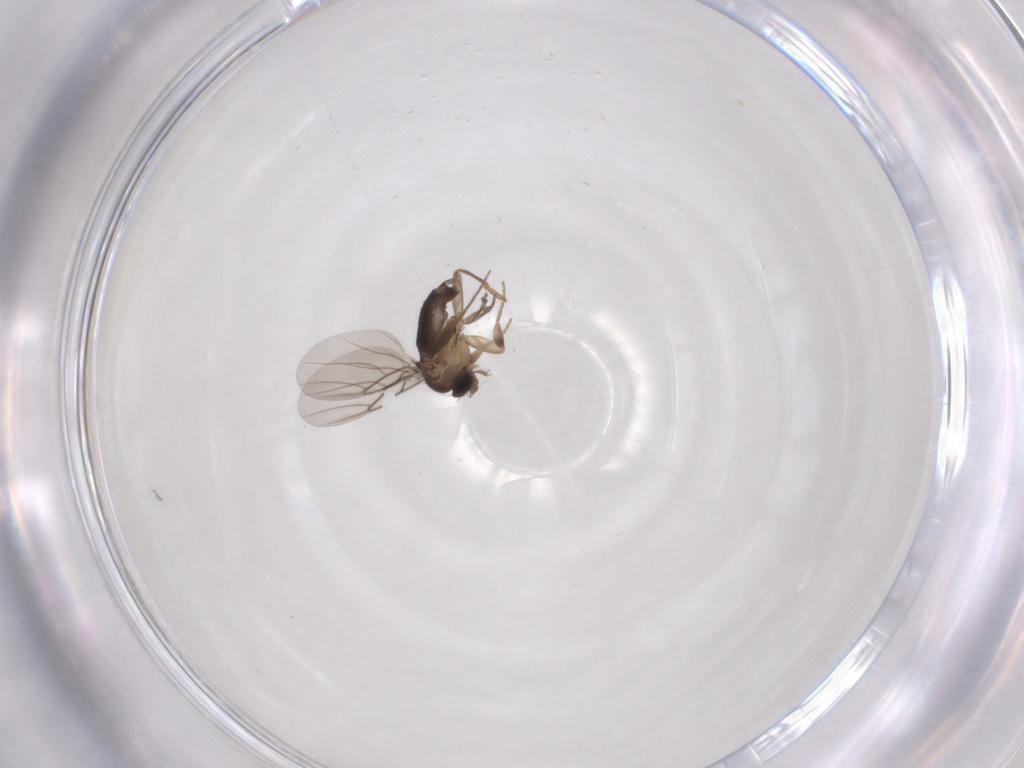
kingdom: Animalia
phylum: Arthropoda
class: Insecta
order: Diptera
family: Phoridae
